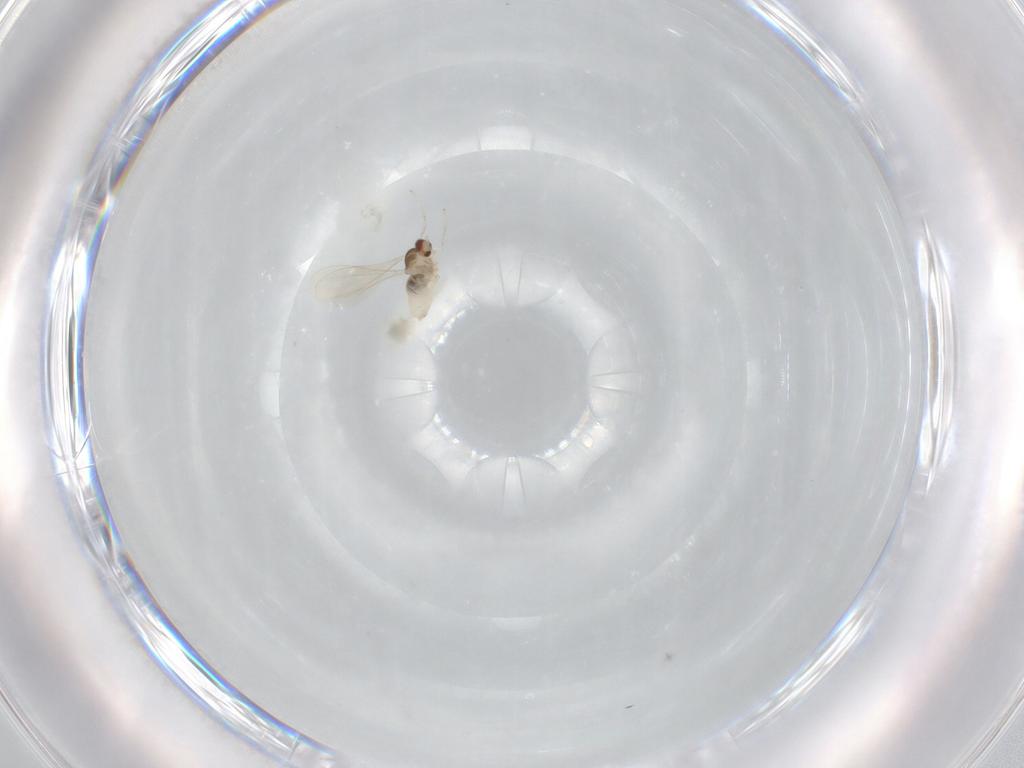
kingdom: Animalia
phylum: Arthropoda
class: Insecta
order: Diptera
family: Cecidomyiidae
